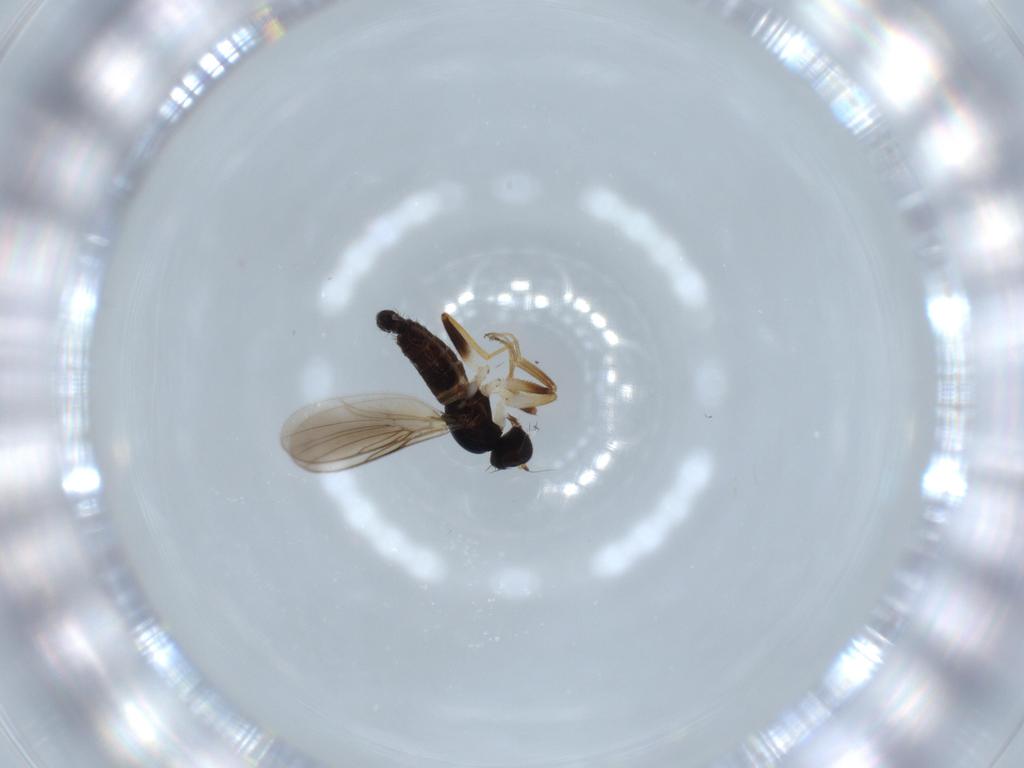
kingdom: Animalia
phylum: Arthropoda
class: Insecta
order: Diptera
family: Hybotidae
